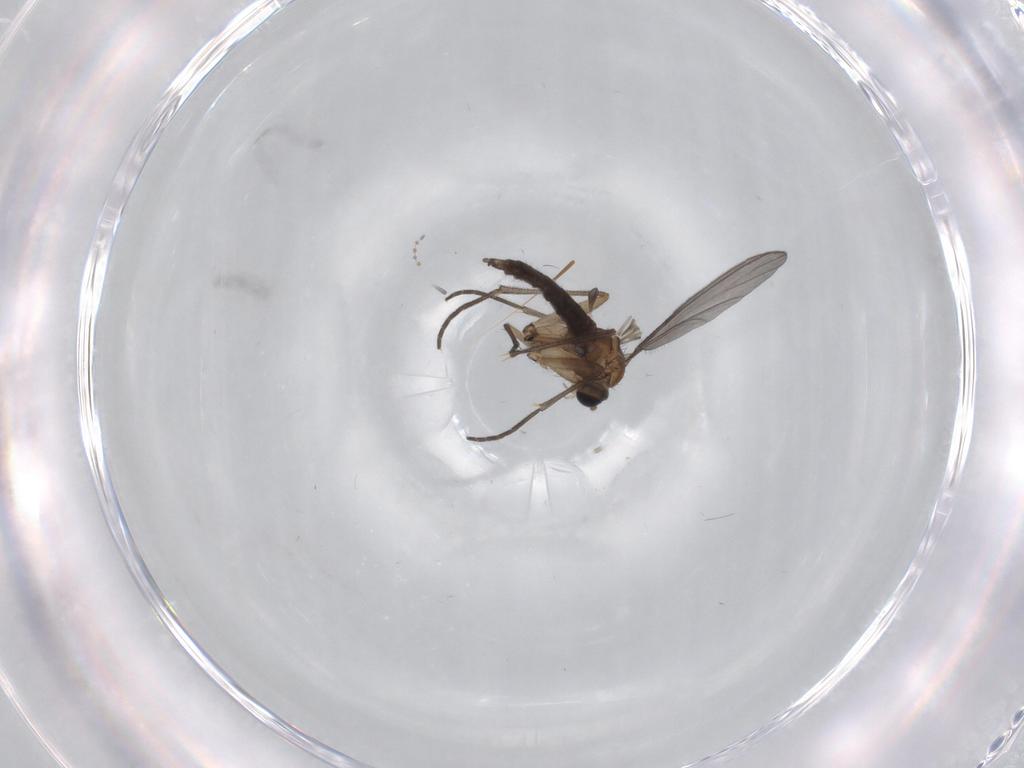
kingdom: Animalia
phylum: Arthropoda
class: Insecta
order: Diptera
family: Sciaridae
